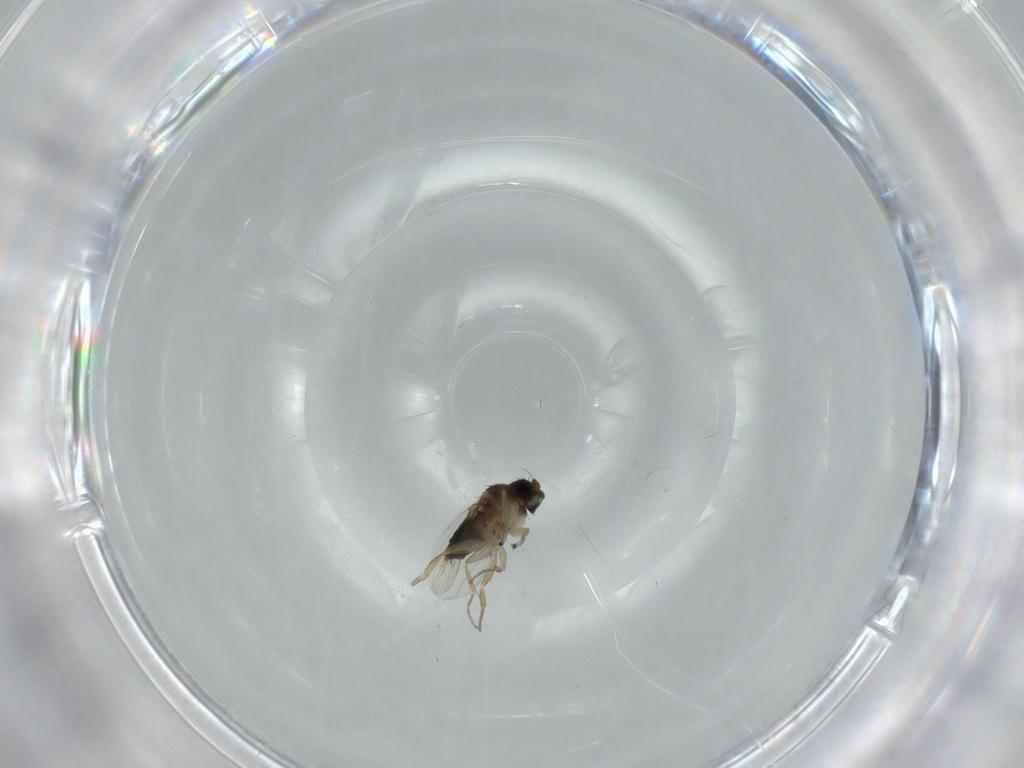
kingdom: Animalia
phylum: Arthropoda
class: Insecta
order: Diptera
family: Phoridae
